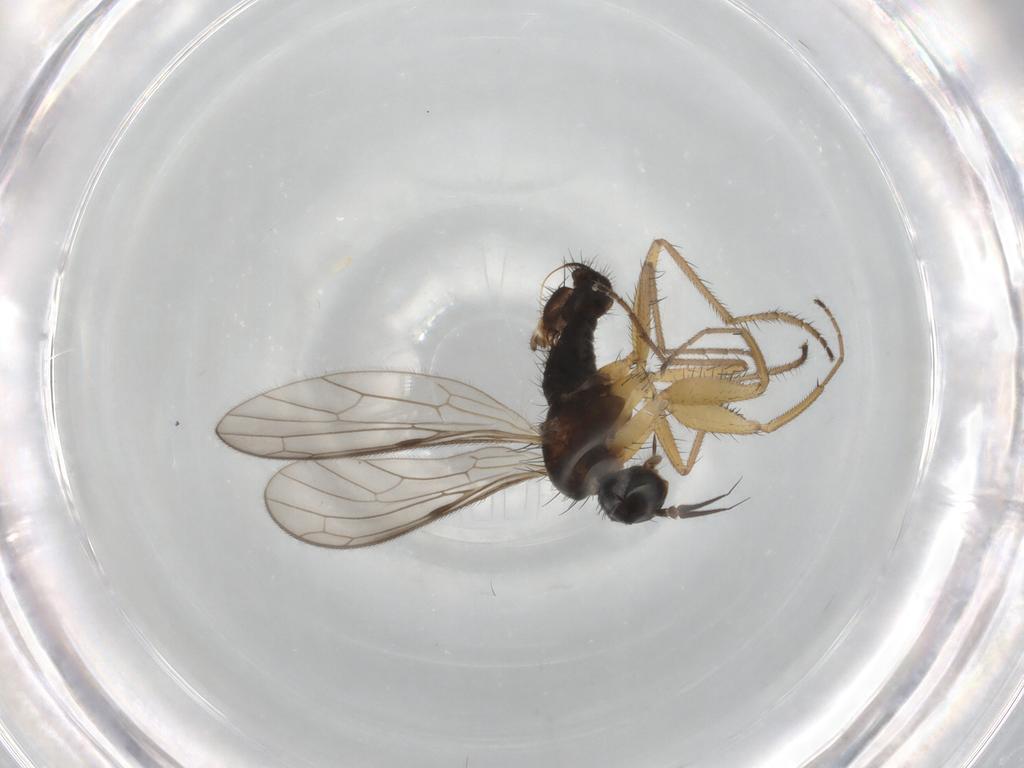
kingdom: Animalia
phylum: Arthropoda
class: Insecta
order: Diptera
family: Empididae
